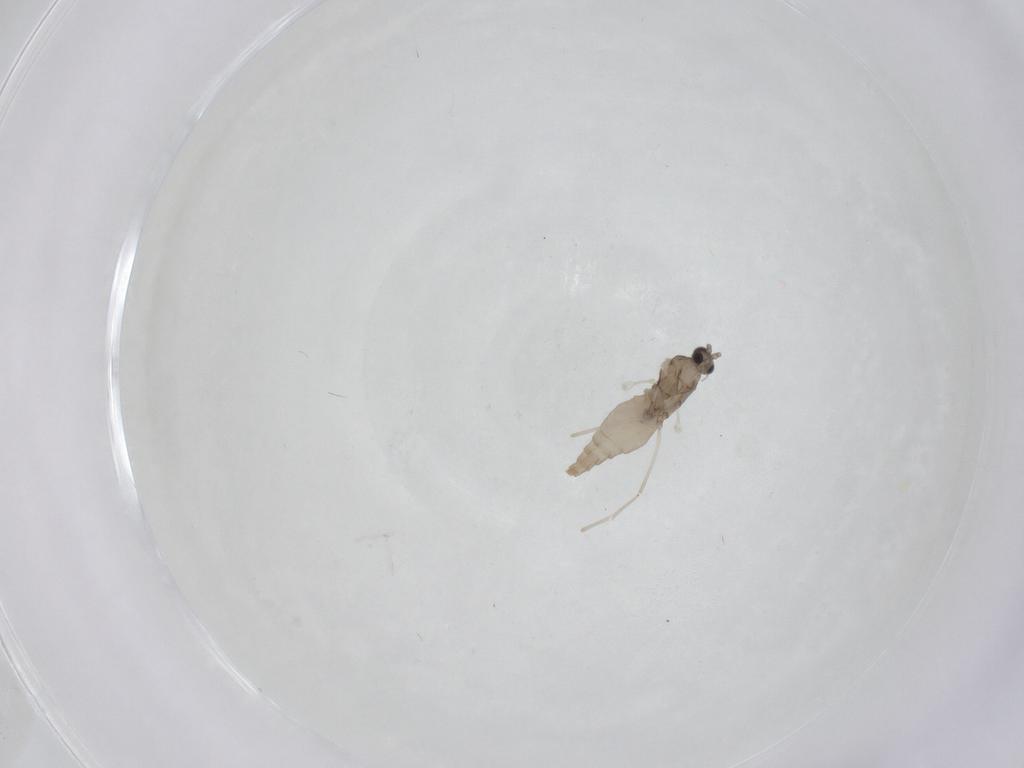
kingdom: Animalia
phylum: Arthropoda
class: Insecta
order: Diptera
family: Cecidomyiidae
